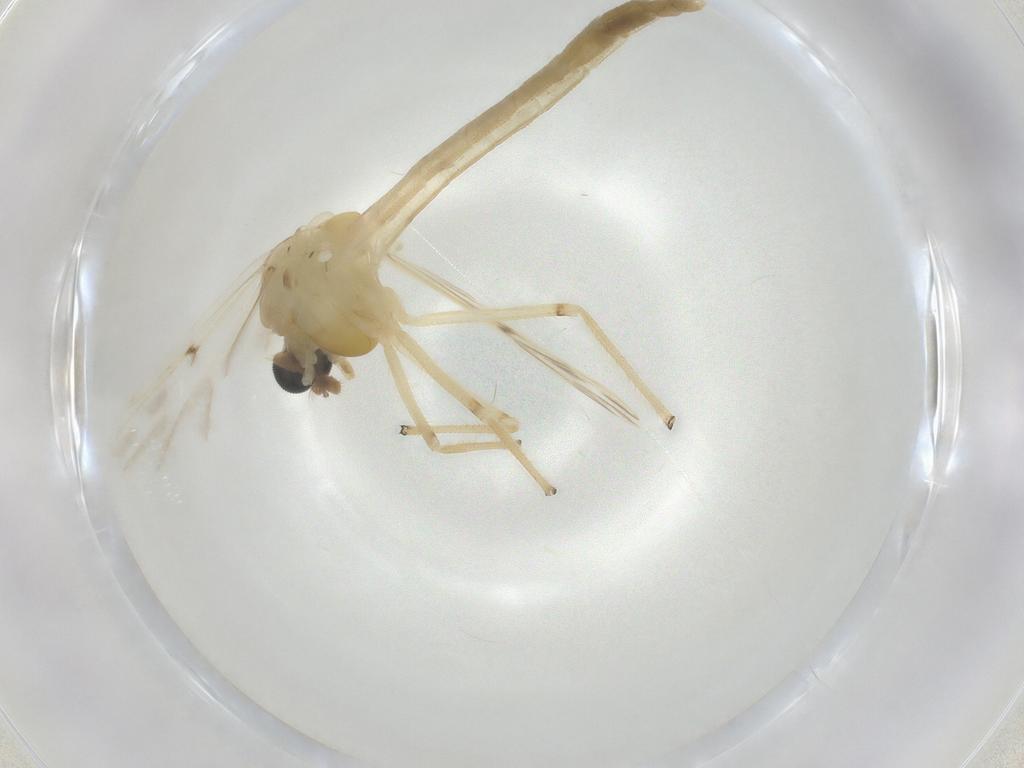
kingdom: Animalia
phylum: Arthropoda
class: Insecta
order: Diptera
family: Chironomidae
